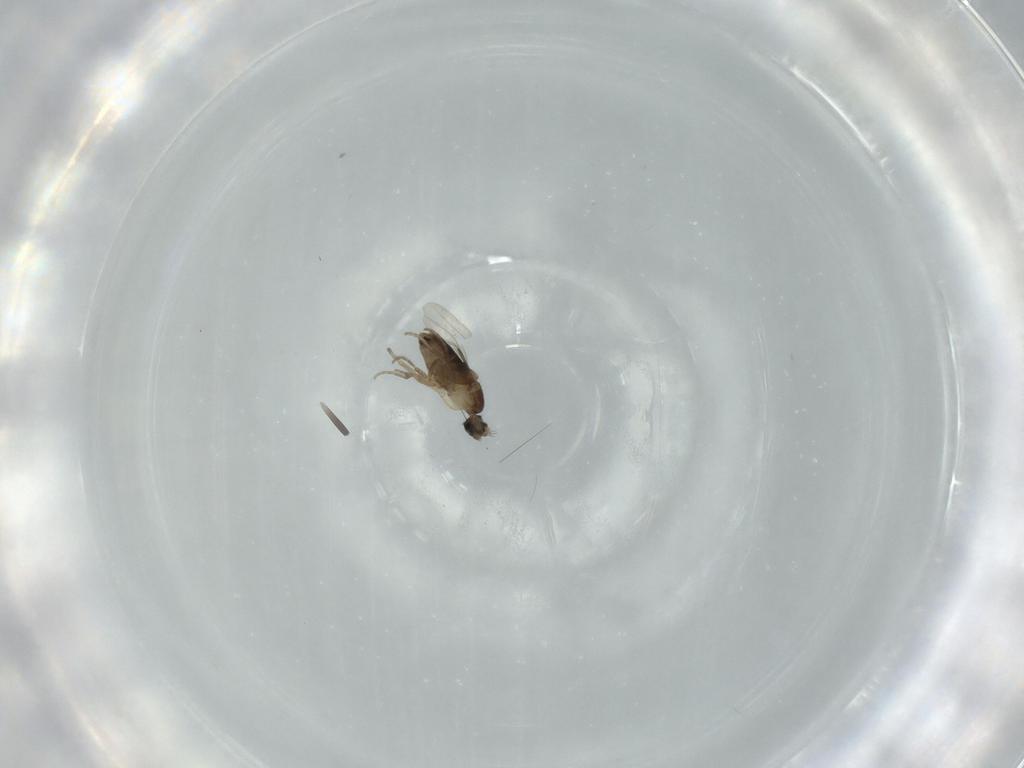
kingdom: Animalia
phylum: Arthropoda
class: Insecta
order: Diptera
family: Phoridae
